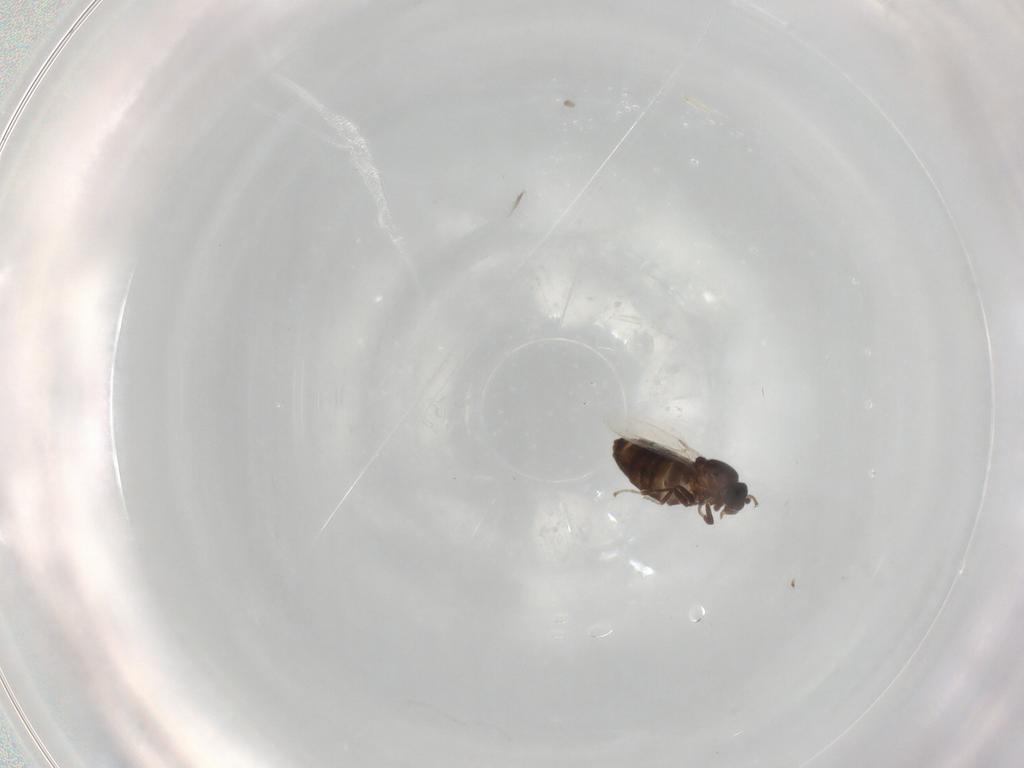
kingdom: Animalia
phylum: Arthropoda
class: Insecta
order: Diptera
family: Scatopsidae
